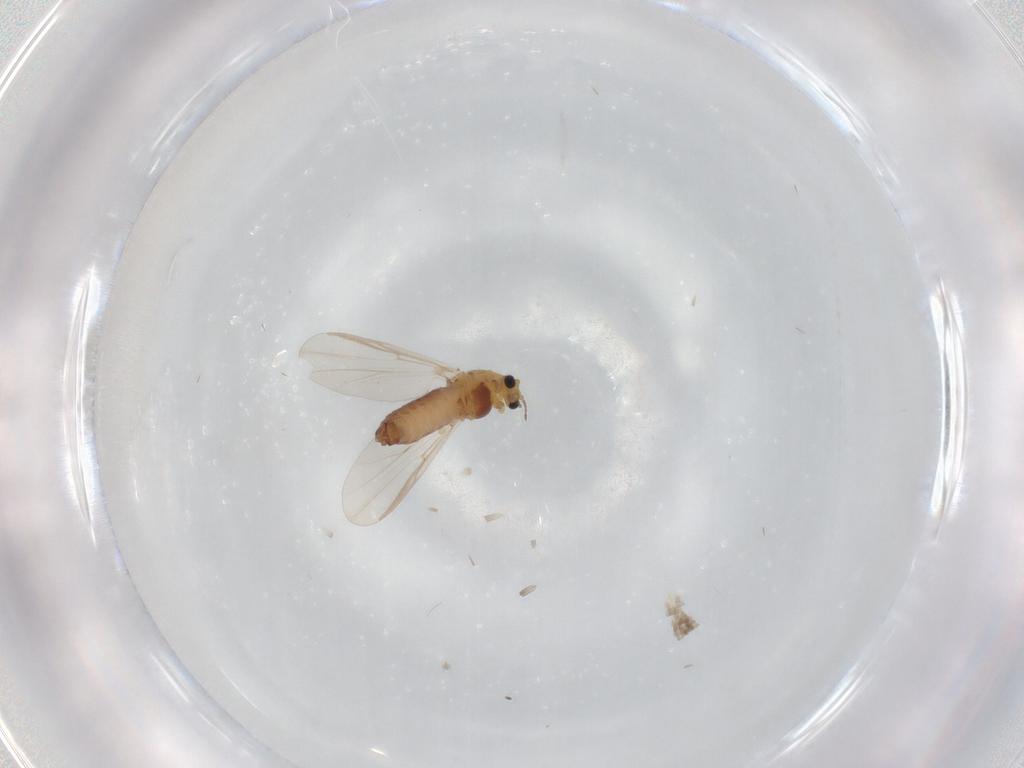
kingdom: Animalia
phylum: Arthropoda
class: Insecta
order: Diptera
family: Chironomidae
